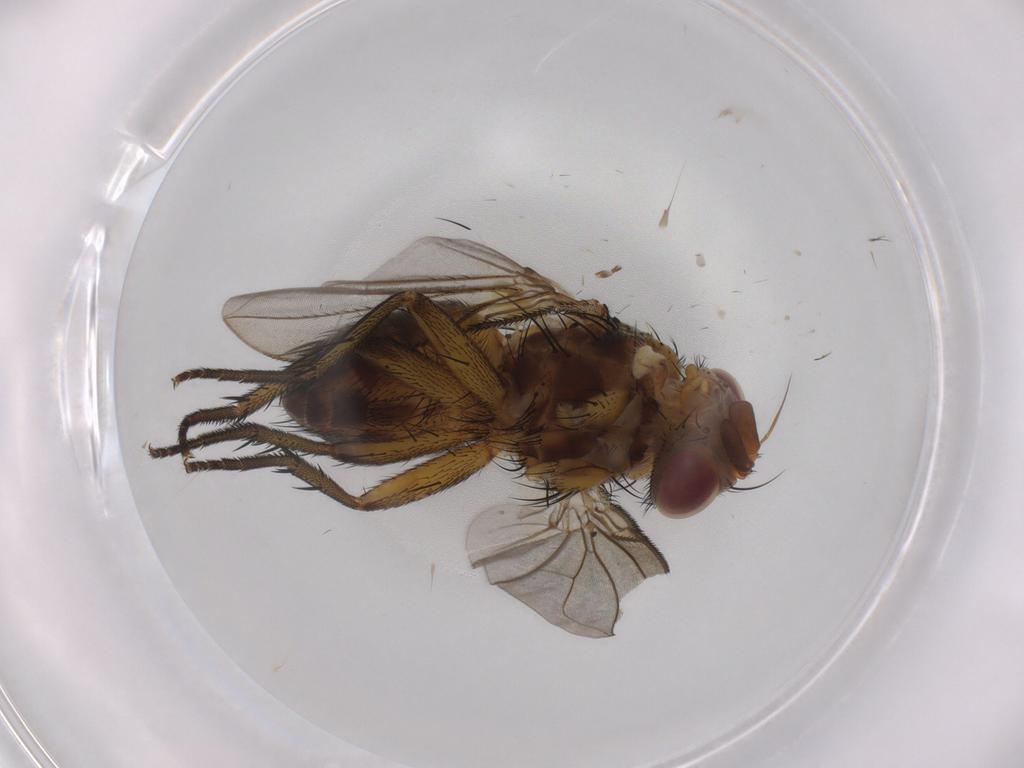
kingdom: Animalia
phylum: Arthropoda
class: Insecta
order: Diptera
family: Tachinidae
